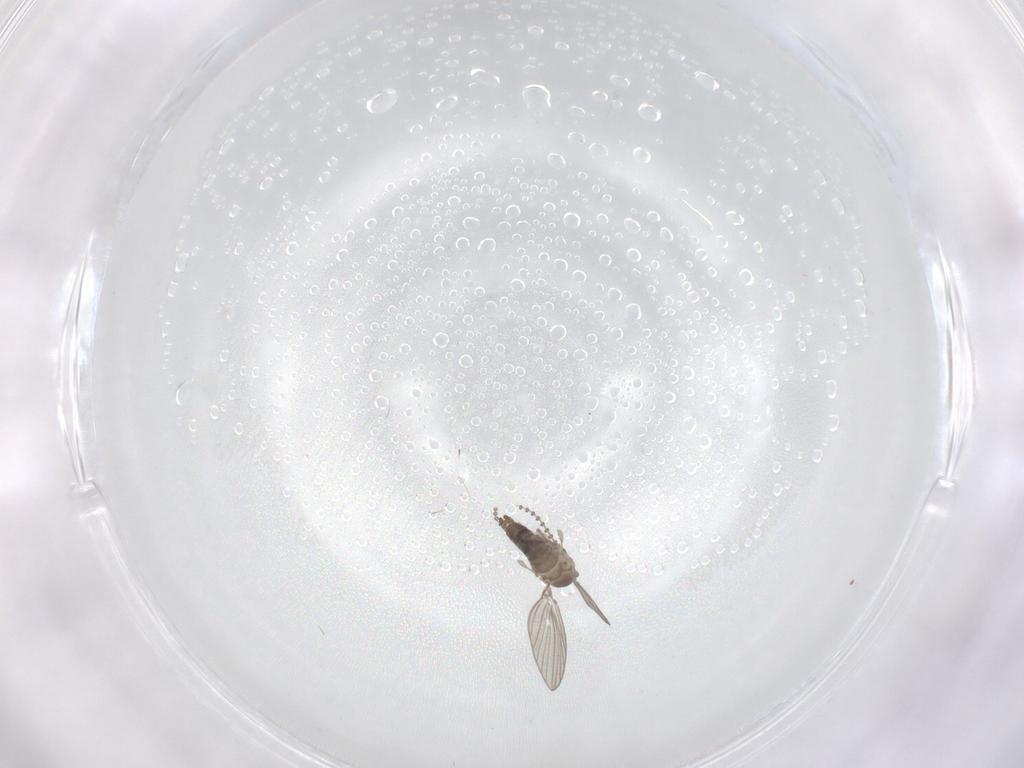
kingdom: Animalia
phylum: Arthropoda
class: Insecta
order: Diptera
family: Psychodidae
